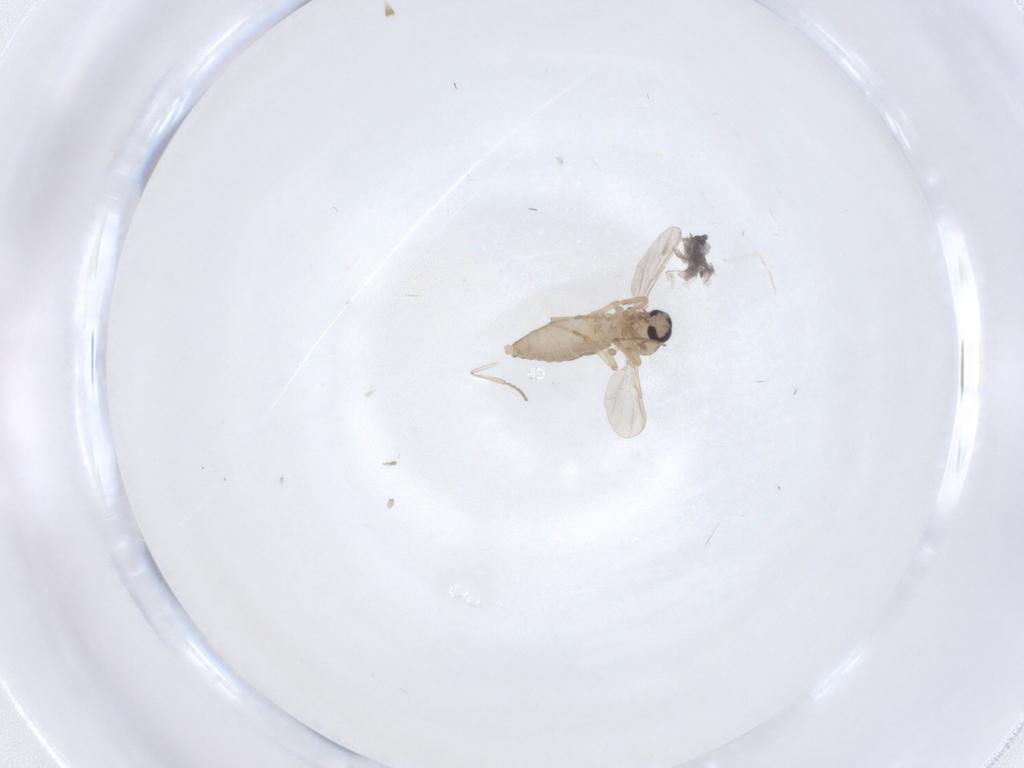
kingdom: Animalia
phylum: Arthropoda
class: Insecta
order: Diptera
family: Ceratopogonidae
